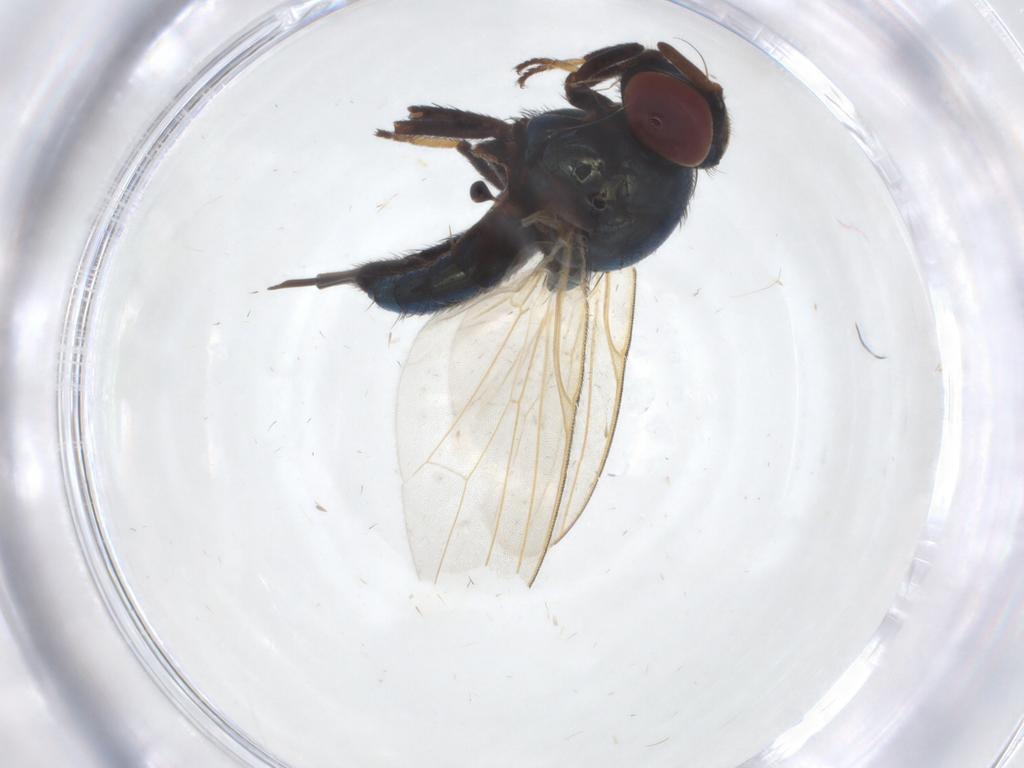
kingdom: Animalia
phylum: Arthropoda
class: Insecta
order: Diptera
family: Lonchaeidae
